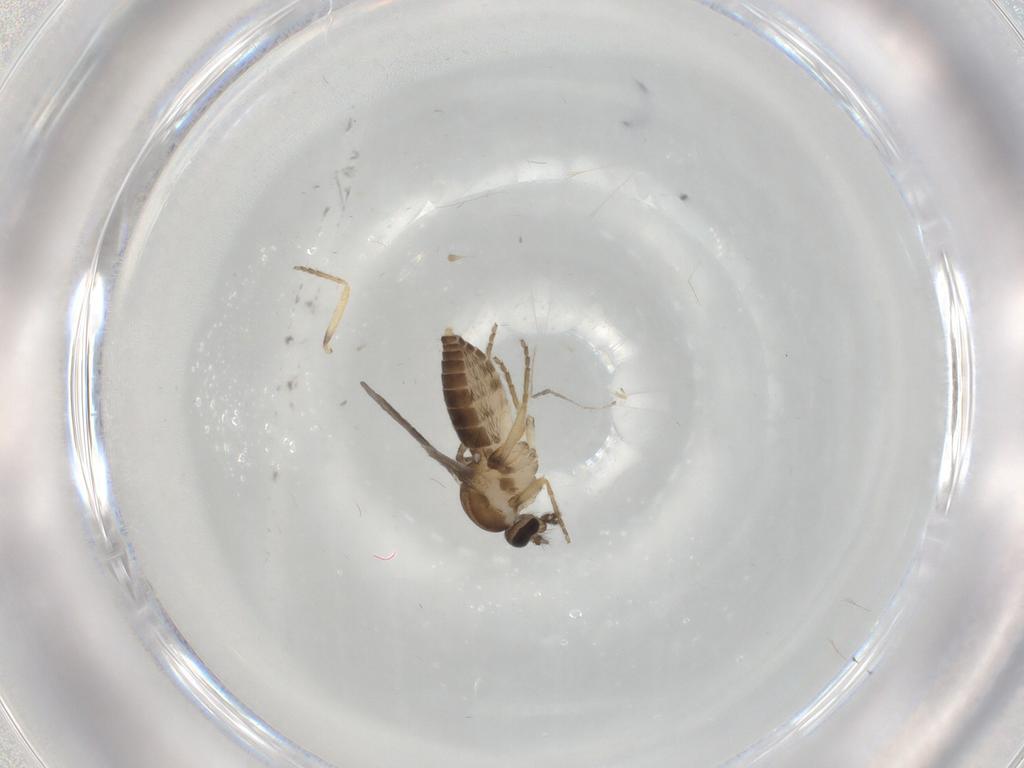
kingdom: Animalia
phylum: Arthropoda
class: Insecta
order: Diptera
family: Ceratopogonidae
